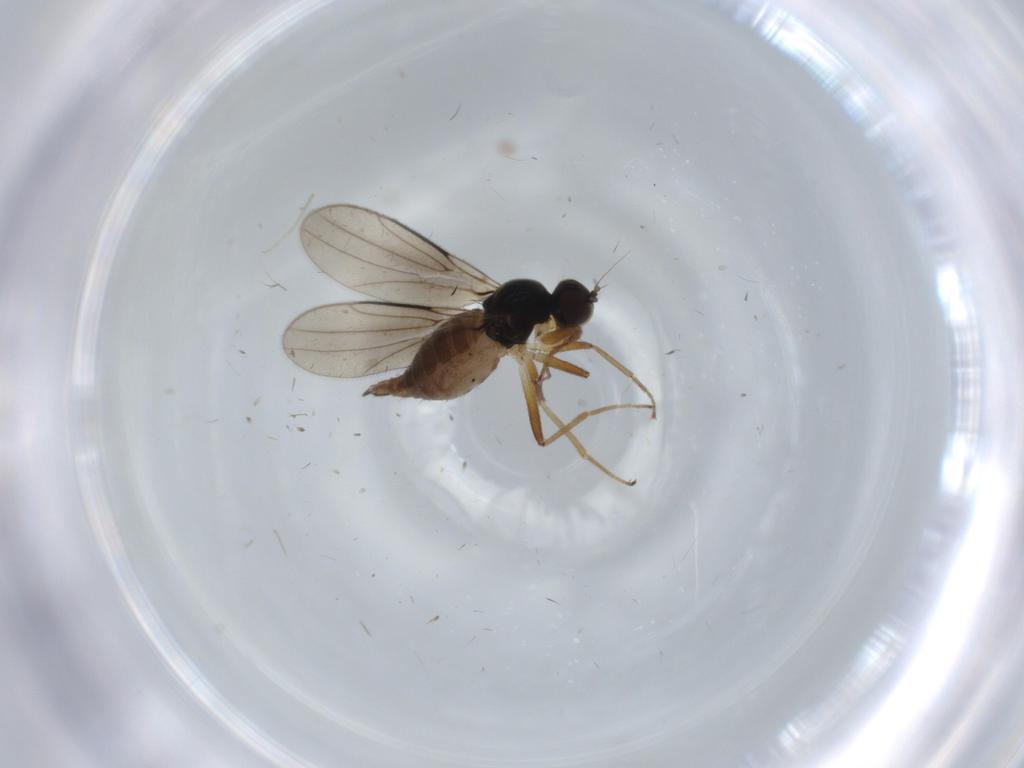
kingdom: Animalia
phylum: Arthropoda
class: Insecta
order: Diptera
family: Hybotidae
